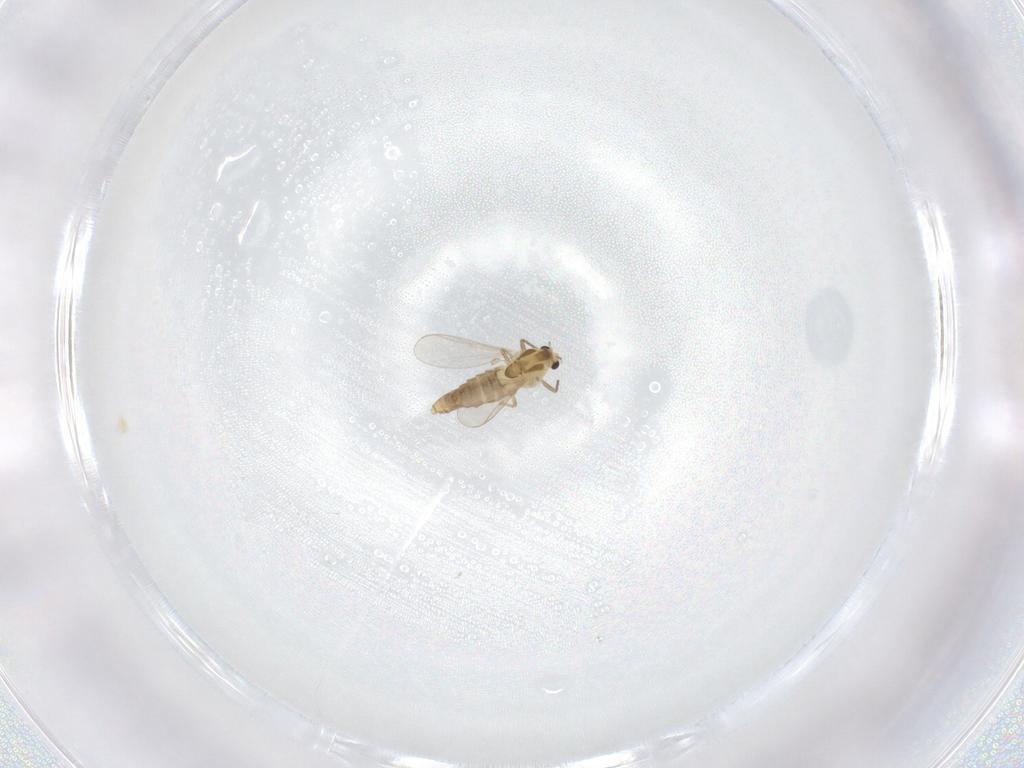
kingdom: Animalia
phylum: Arthropoda
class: Insecta
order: Diptera
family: Chironomidae
